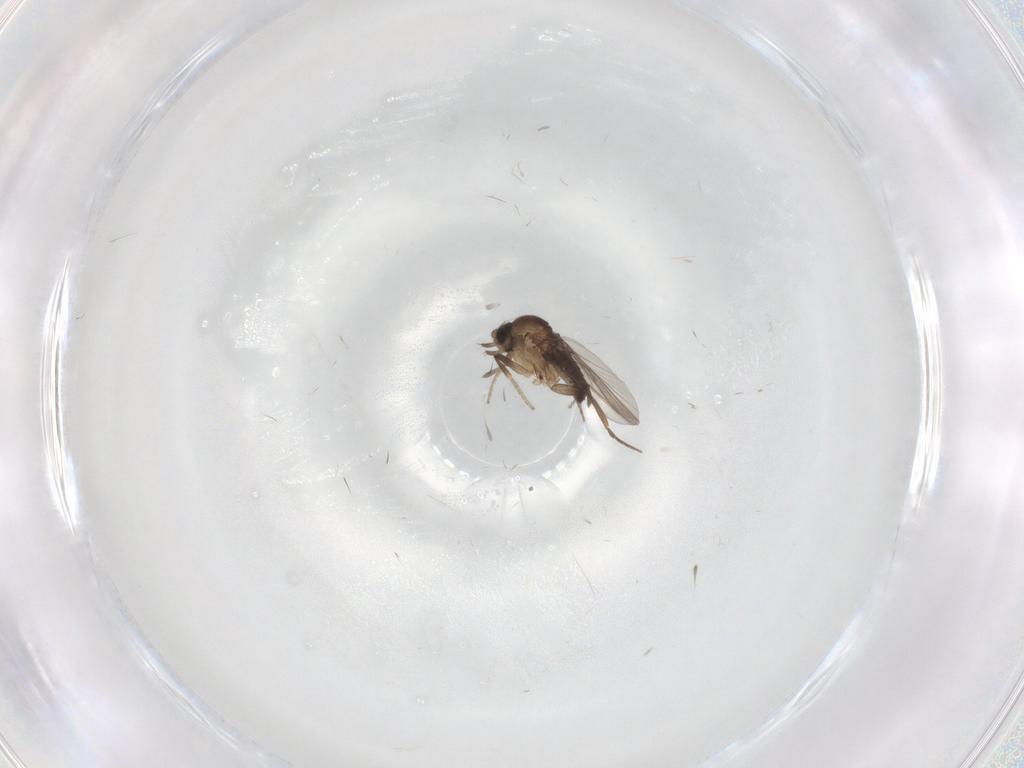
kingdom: Animalia
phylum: Arthropoda
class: Insecta
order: Diptera
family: Phoridae
